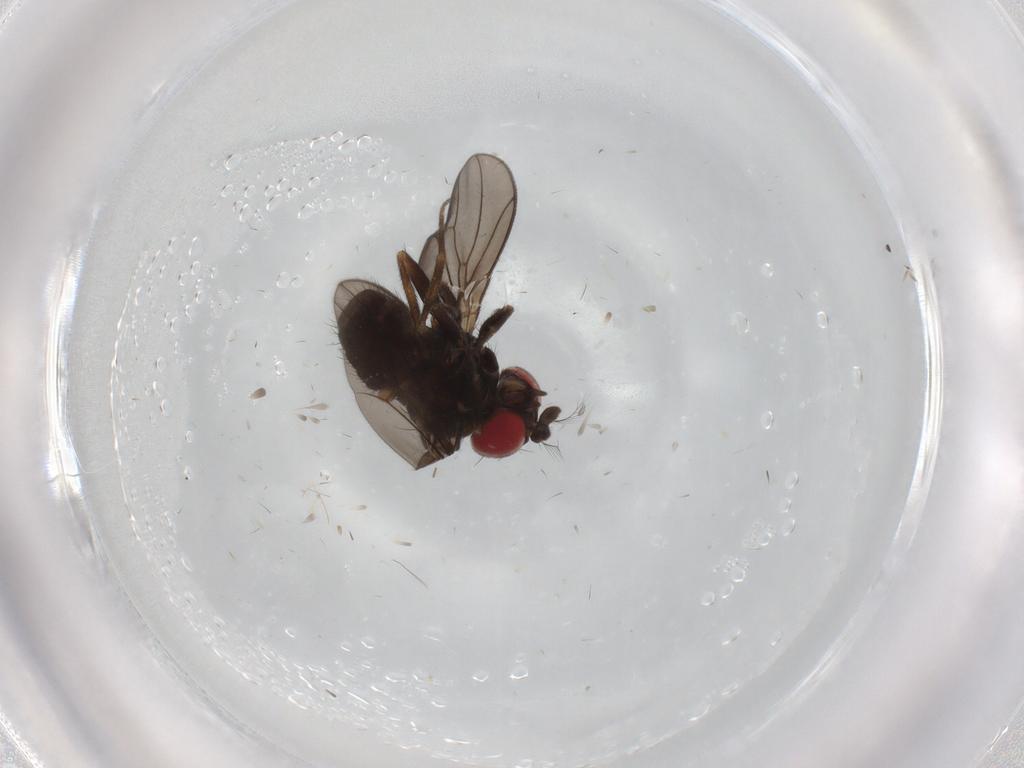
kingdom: Animalia
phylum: Arthropoda
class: Insecta
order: Diptera
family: Drosophilidae
